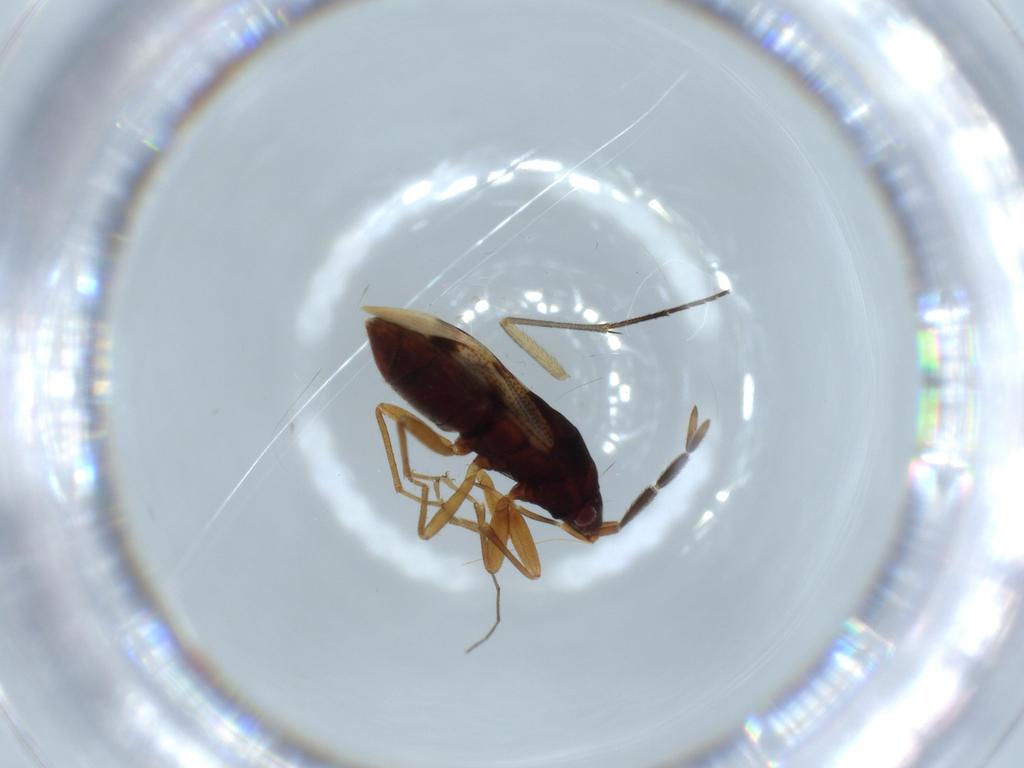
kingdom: Animalia
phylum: Arthropoda
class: Insecta
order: Hemiptera
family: Rhyparochromidae
